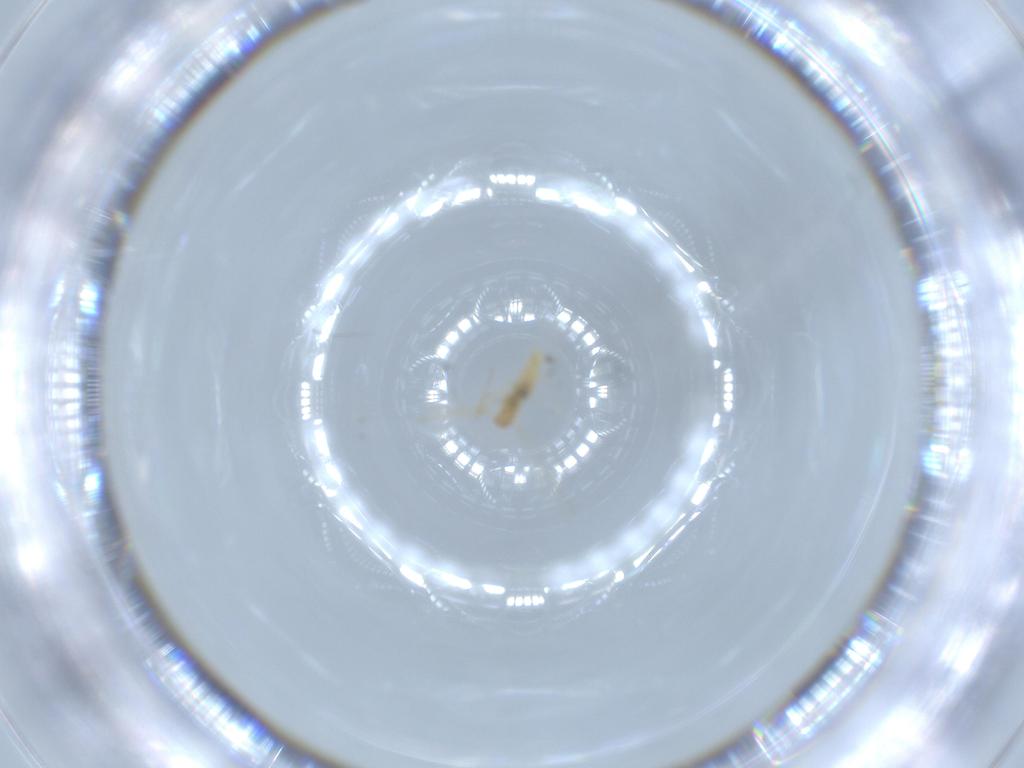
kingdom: Animalia
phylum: Arthropoda
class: Insecta
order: Diptera
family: Sciaridae
